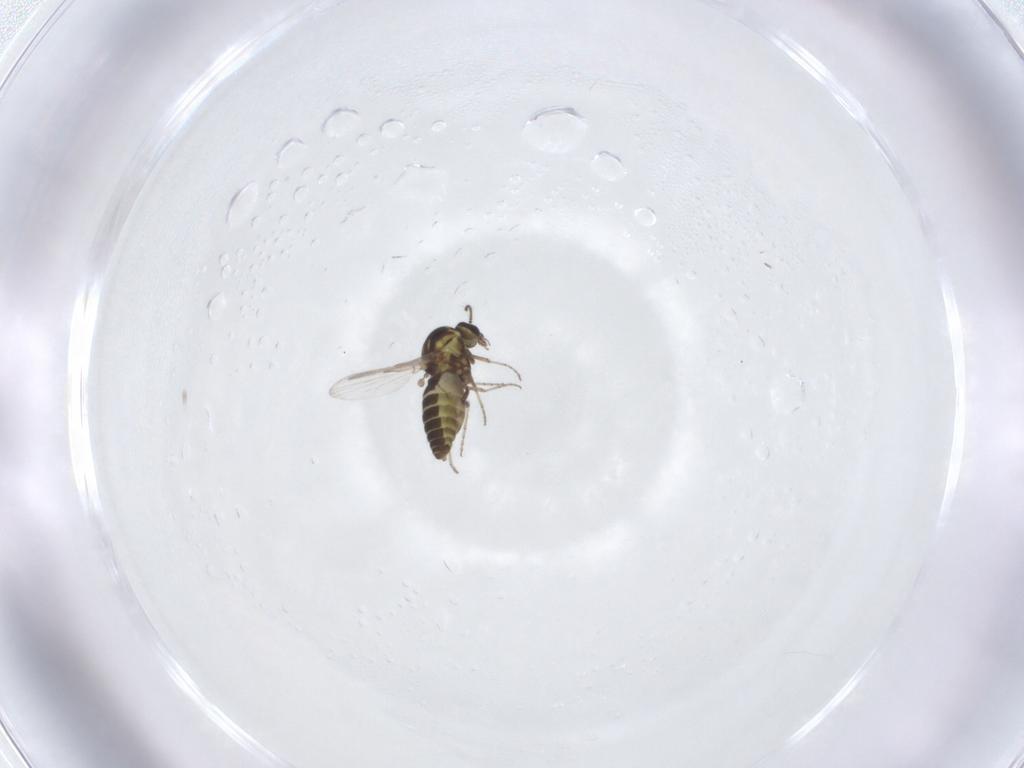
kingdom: Animalia
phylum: Arthropoda
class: Insecta
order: Diptera
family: Ceratopogonidae
